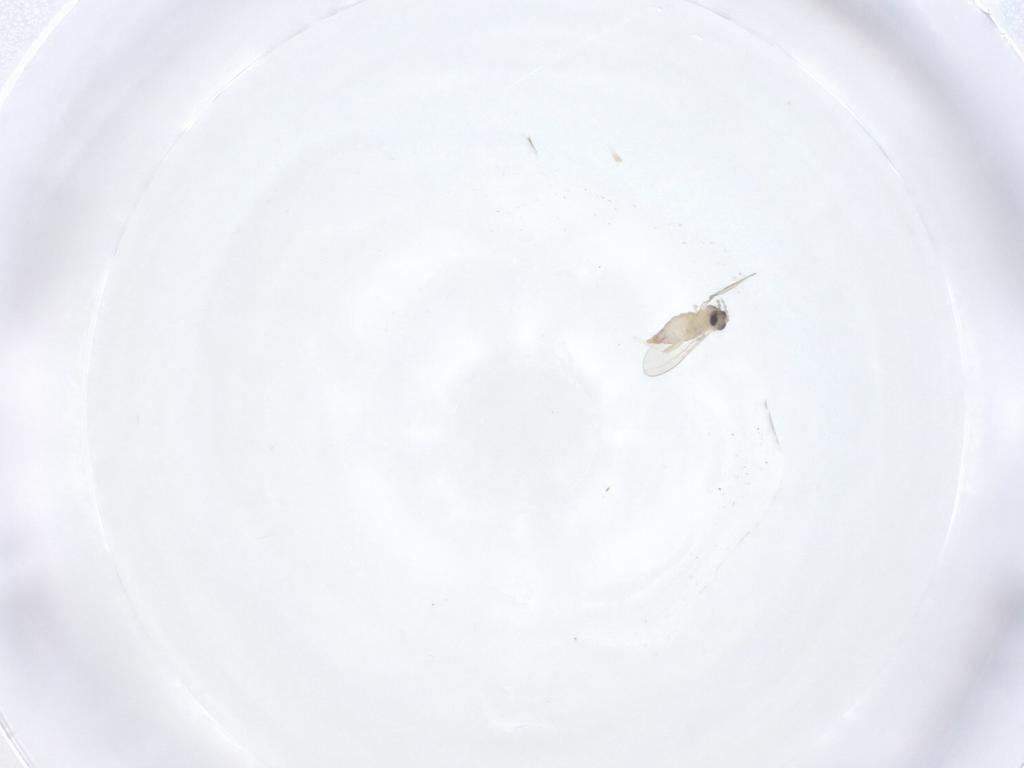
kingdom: Animalia
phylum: Arthropoda
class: Insecta
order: Diptera
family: Cecidomyiidae
